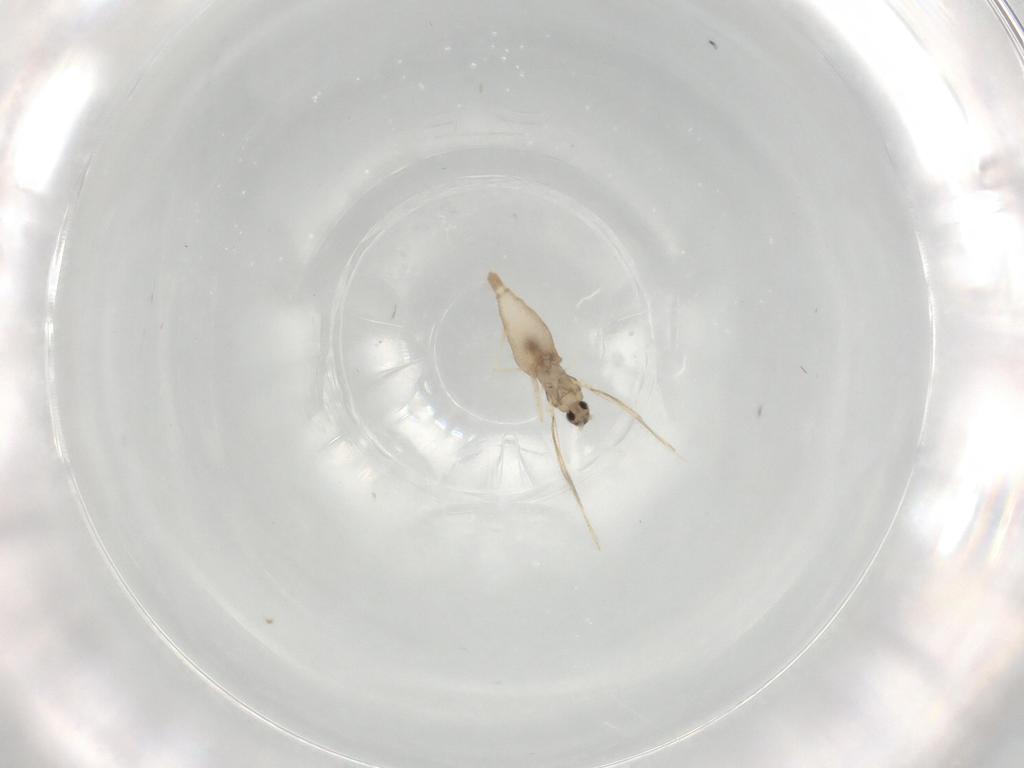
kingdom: Animalia
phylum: Arthropoda
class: Insecta
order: Diptera
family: Cecidomyiidae
